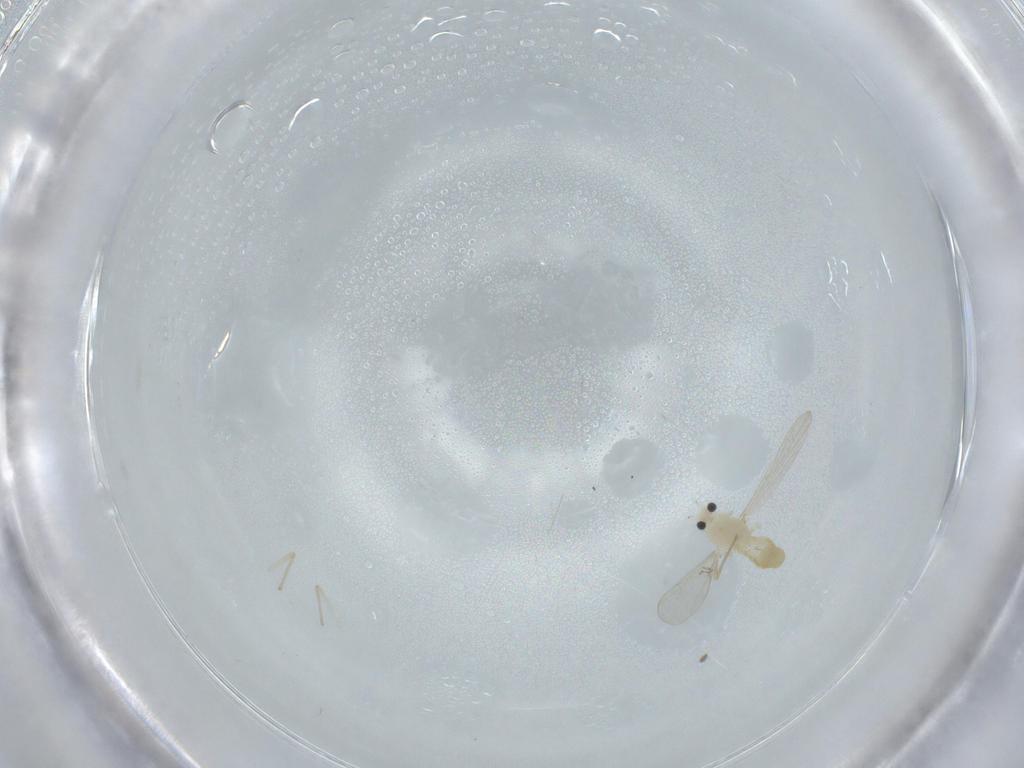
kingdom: Animalia
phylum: Arthropoda
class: Insecta
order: Diptera
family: Chironomidae
